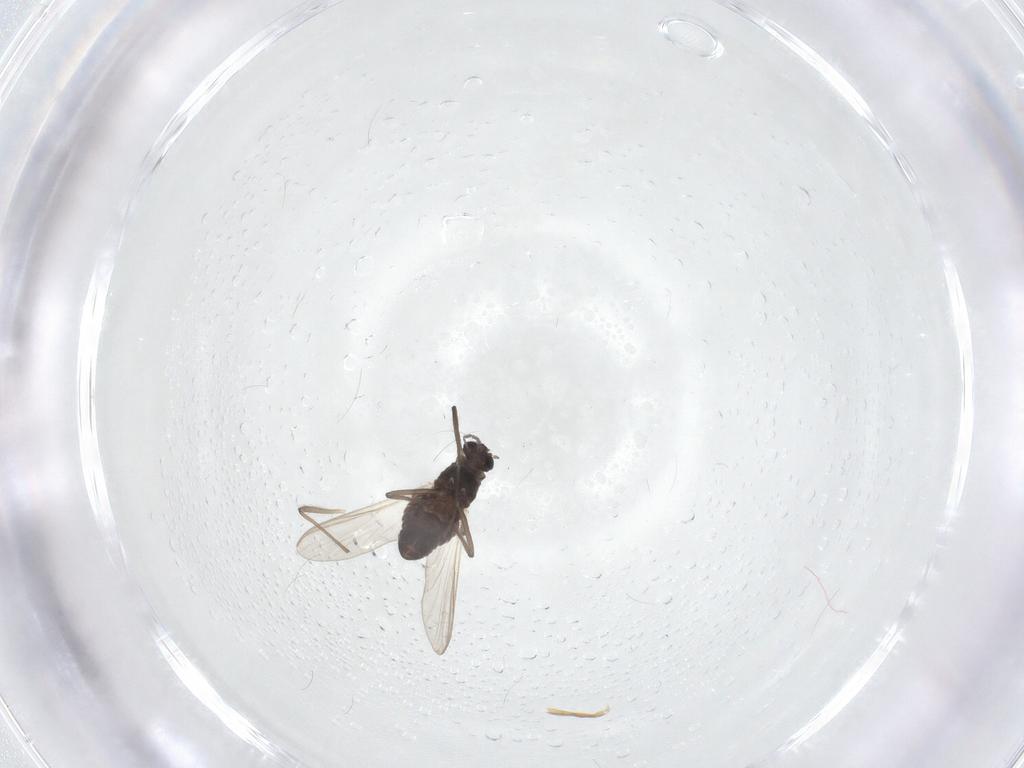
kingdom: Animalia
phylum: Arthropoda
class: Insecta
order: Diptera
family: Chironomidae
